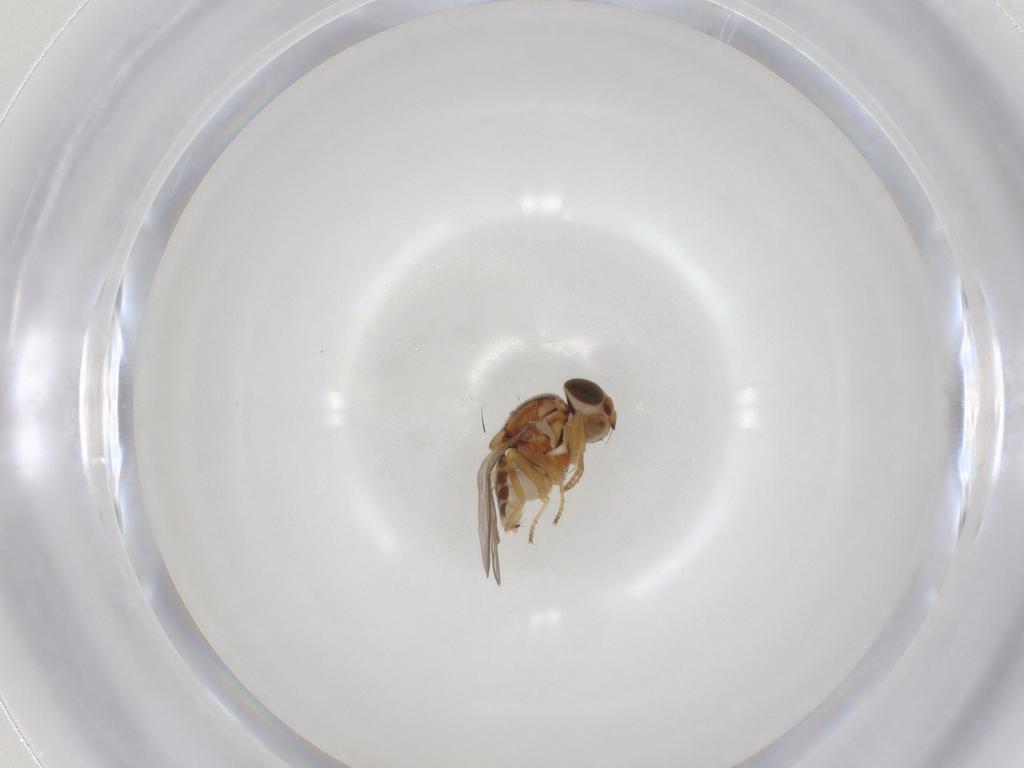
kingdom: Animalia
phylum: Arthropoda
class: Insecta
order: Diptera
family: Chloropidae
